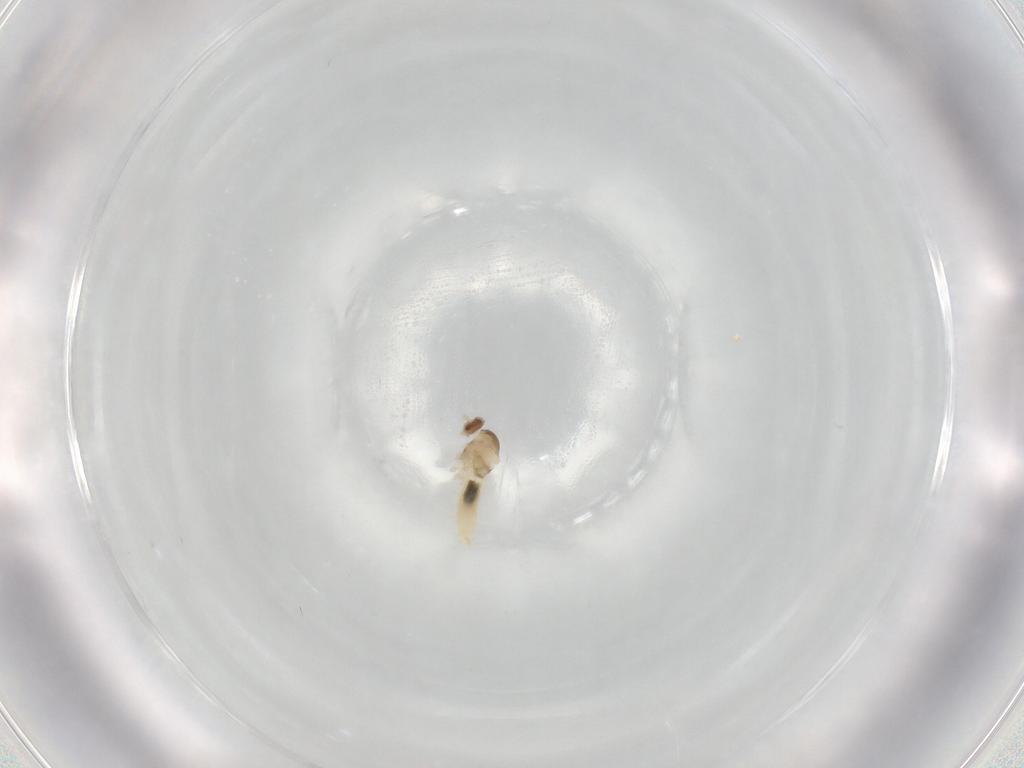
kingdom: Animalia
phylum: Arthropoda
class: Insecta
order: Diptera
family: Cecidomyiidae
